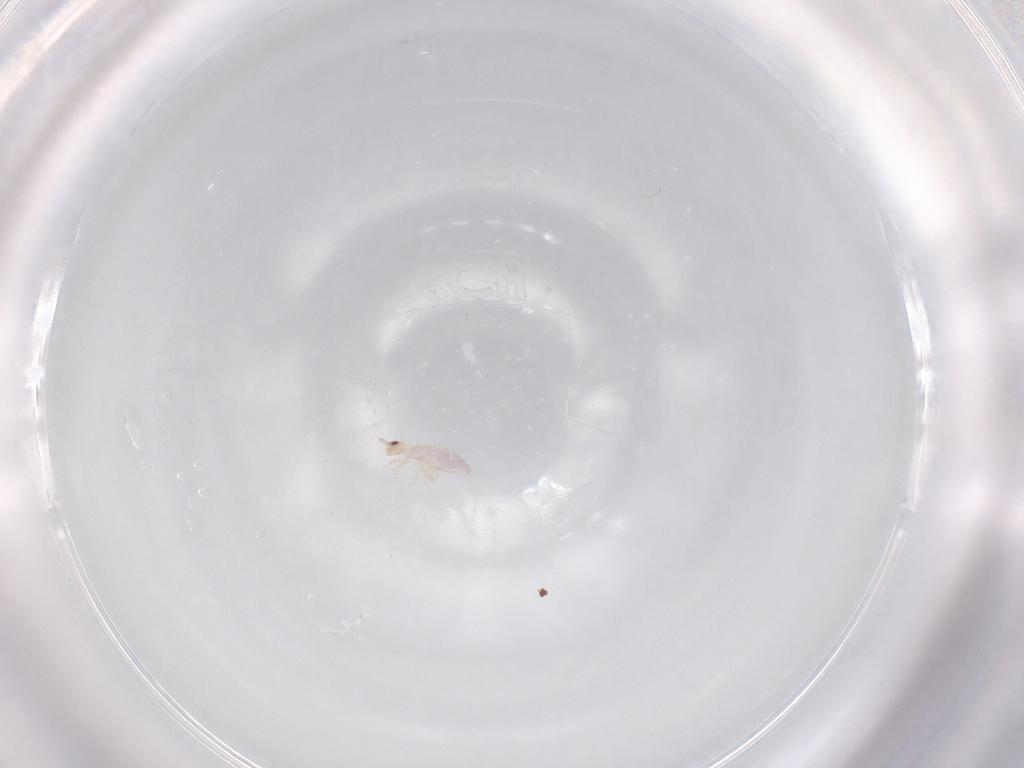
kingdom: Animalia
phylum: Arthropoda
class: Collembola
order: Entomobryomorpha
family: Entomobryidae
